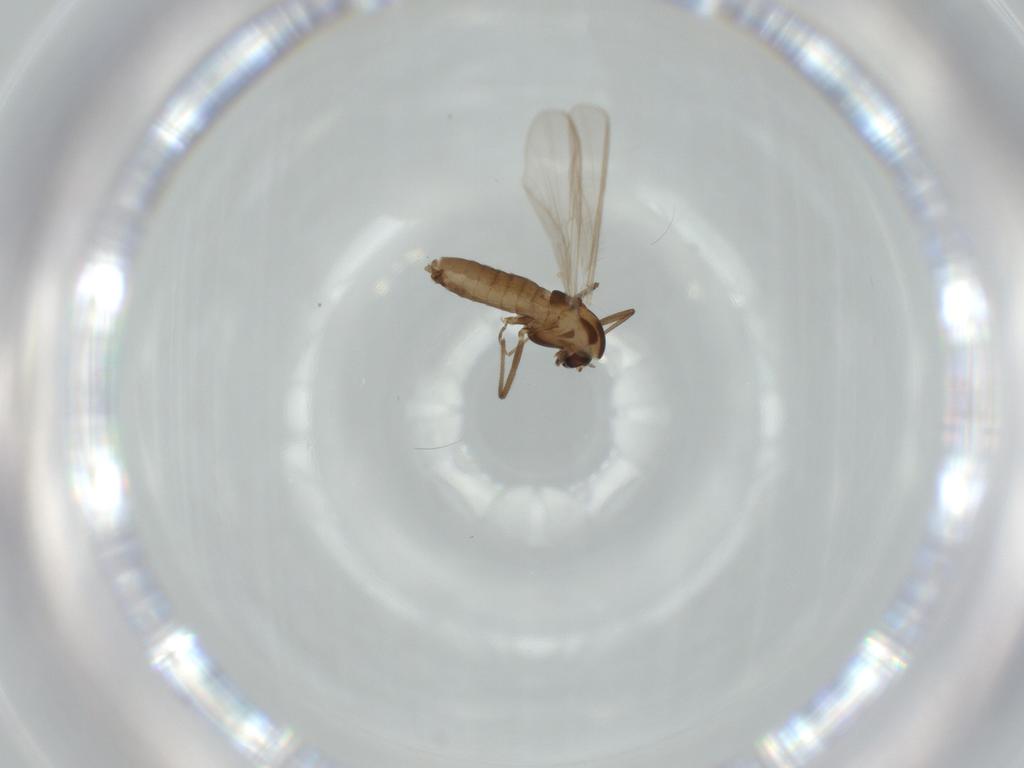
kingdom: Animalia
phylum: Arthropoda
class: Insecta
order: Diptera
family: Chironomidae
